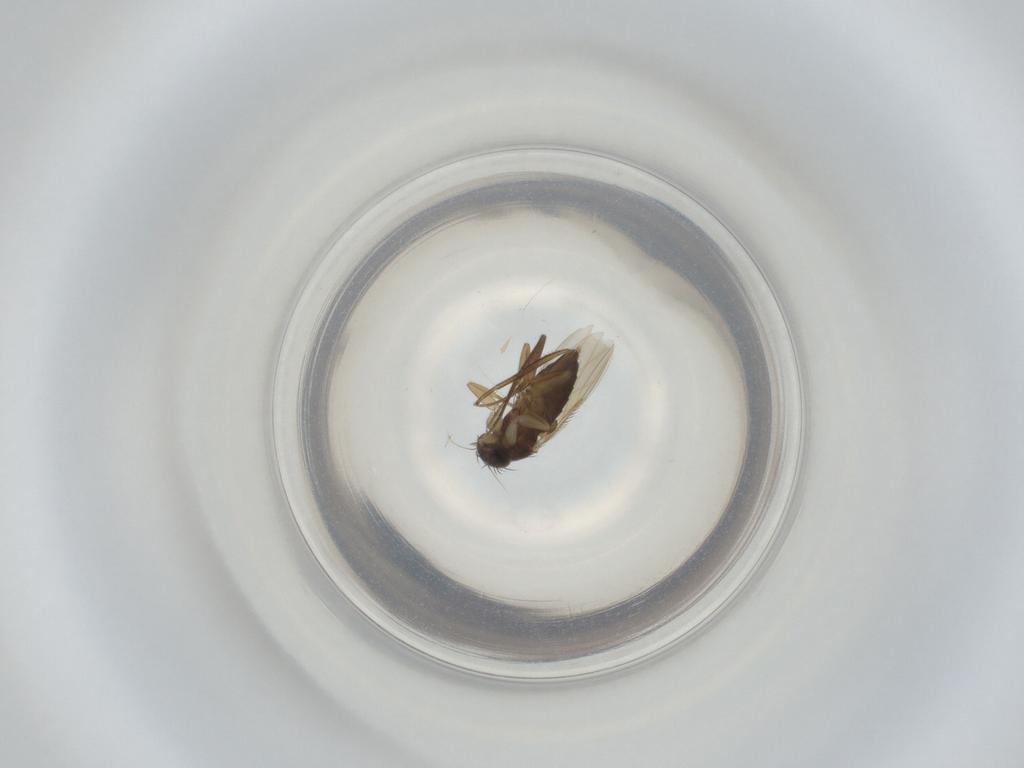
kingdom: Animalia
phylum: Arthropoda
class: Insecta
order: Diptera
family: Phoridae
